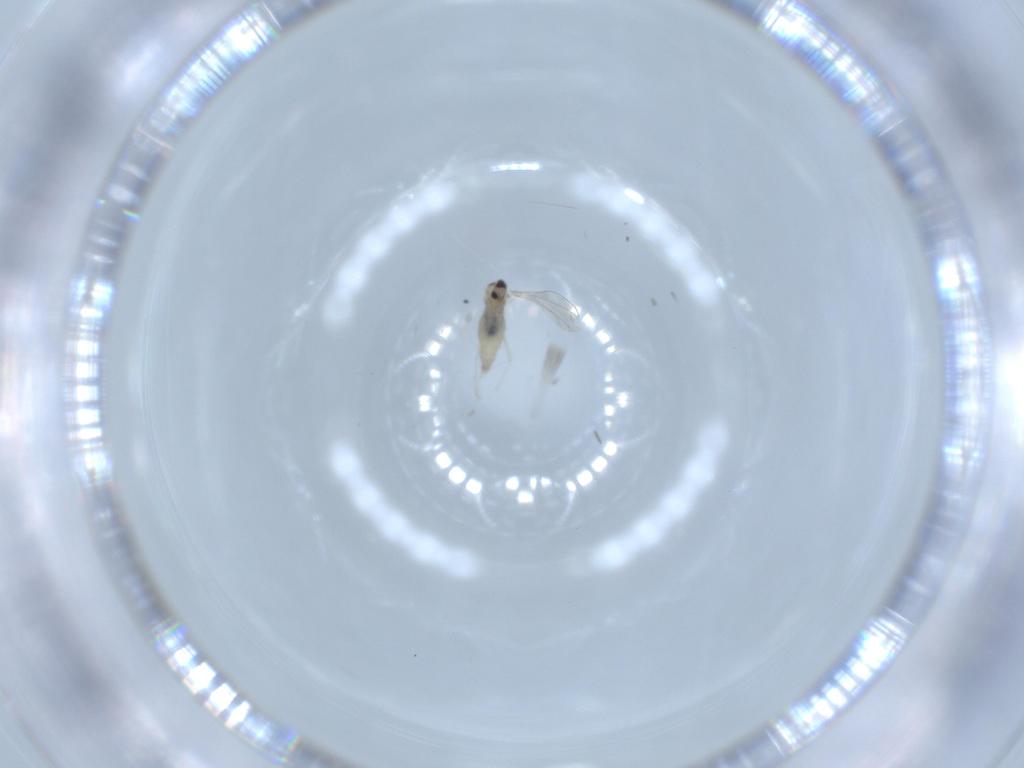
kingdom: Animalia
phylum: Arthropoda
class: Insecta
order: Diptera
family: Cecidomyiidae
